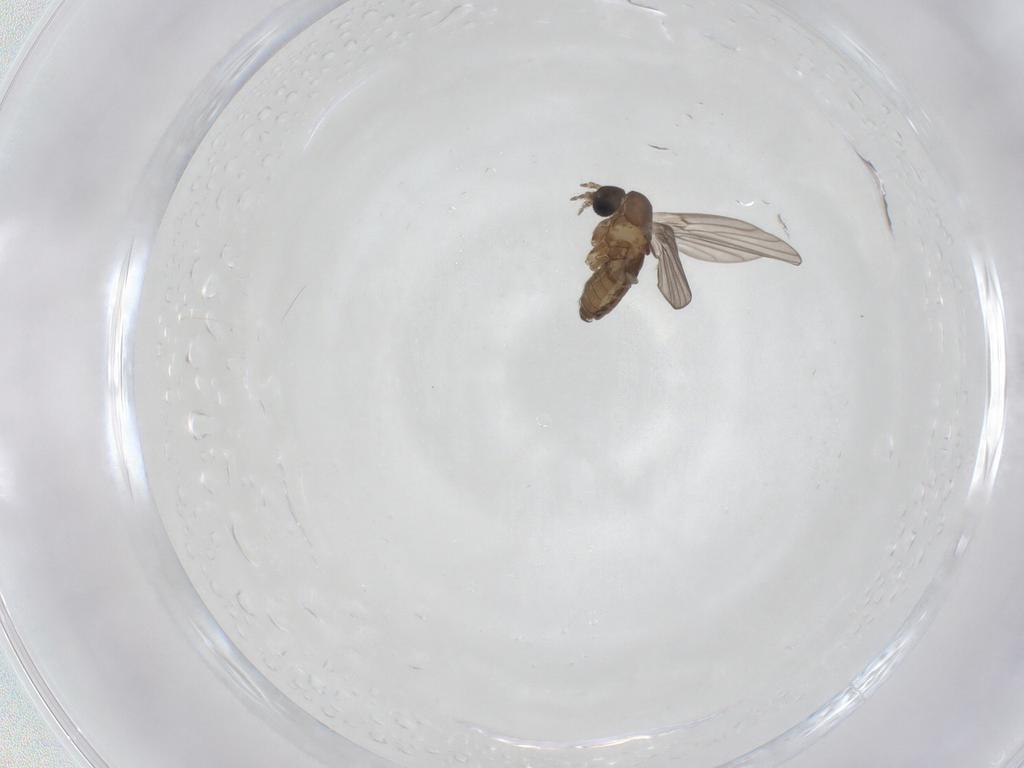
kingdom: Animalia
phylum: Arthropoda
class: Insecta
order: Diptera
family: Psychodidae
